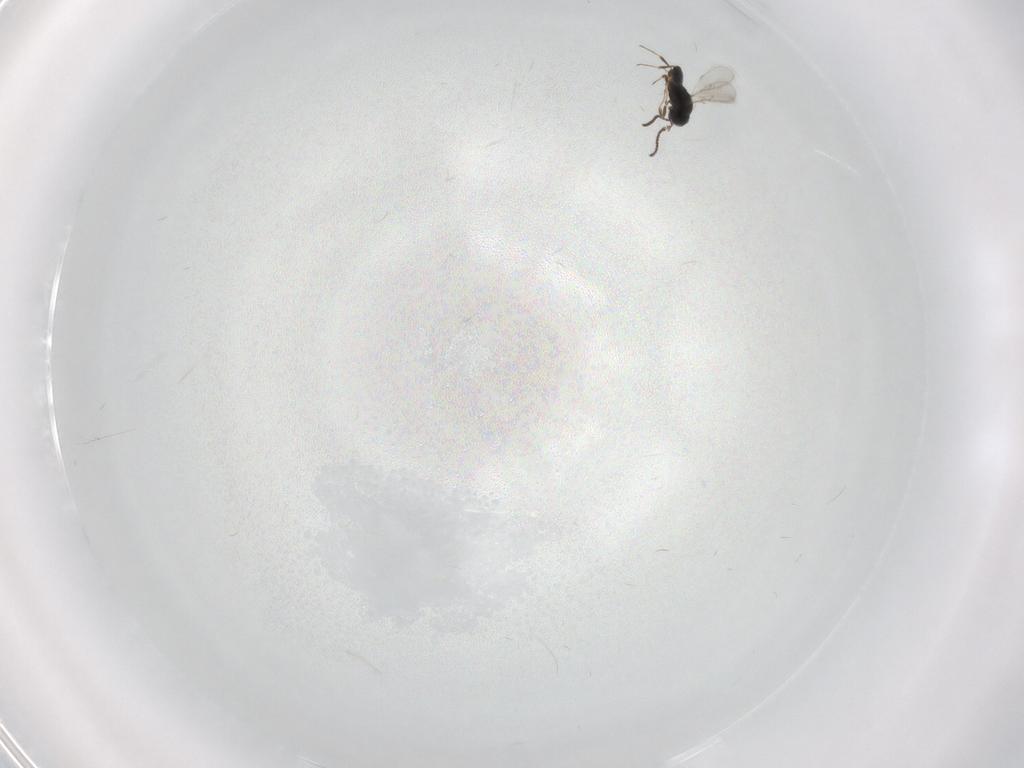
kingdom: Animalia
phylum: Arthropoda
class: Insecta
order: Hymenoptera
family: Scelionidae
